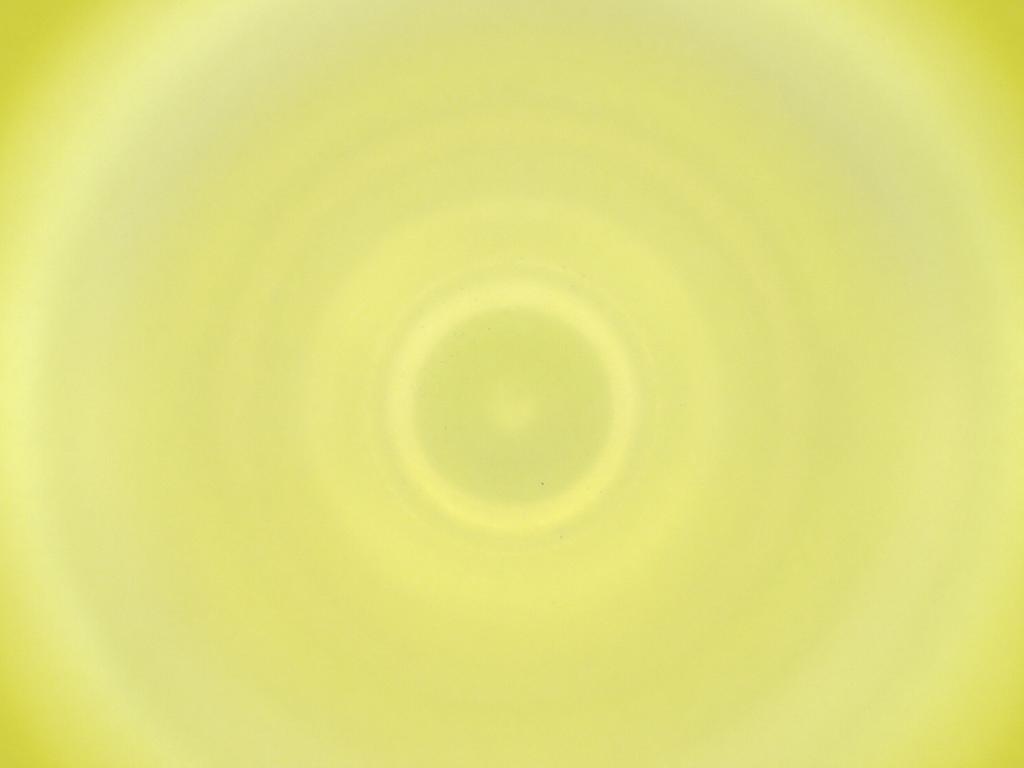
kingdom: Animalia
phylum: Arthropoda
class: Insecta
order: Diptera
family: Cecidomyiidae
